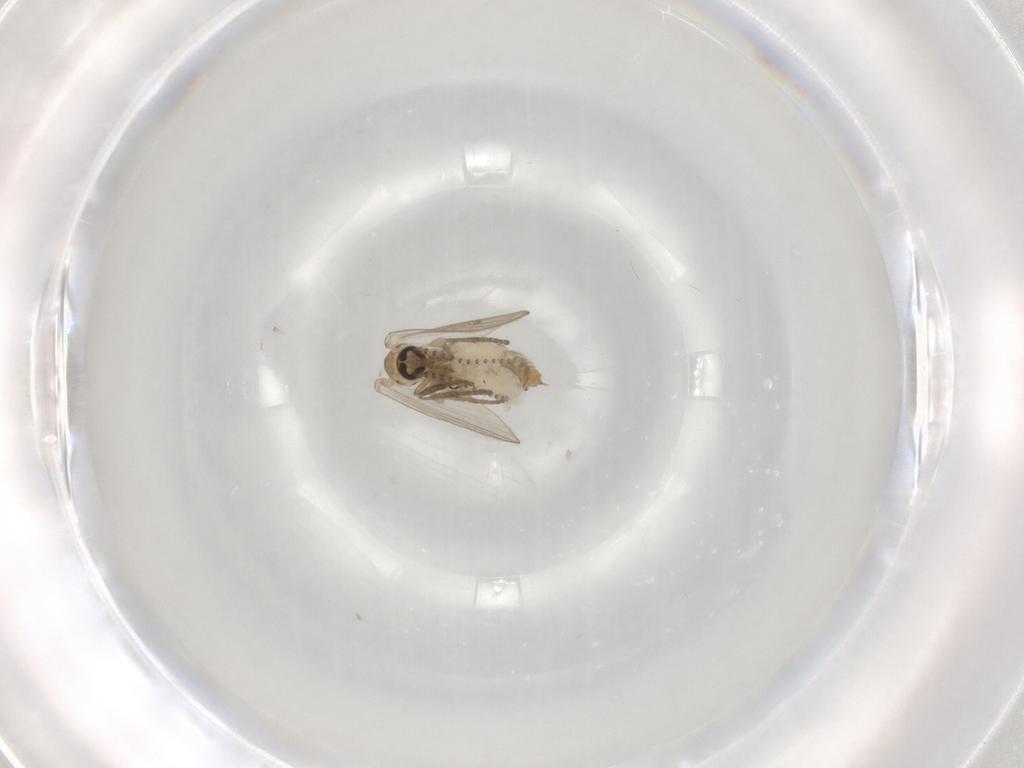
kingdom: Animalia
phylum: Arthropoda
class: Insecta
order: Diptera
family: Psychodidae
